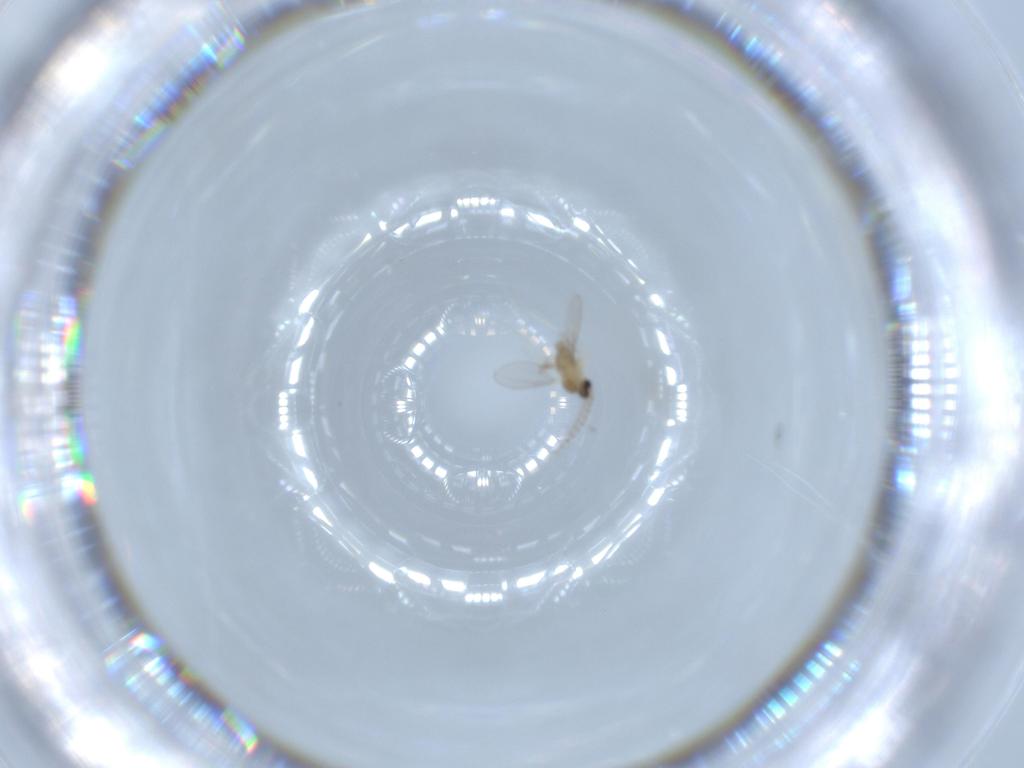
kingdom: Animalia
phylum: Arthropoda
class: Insecta
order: Diptera
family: Cecidomyiidae
